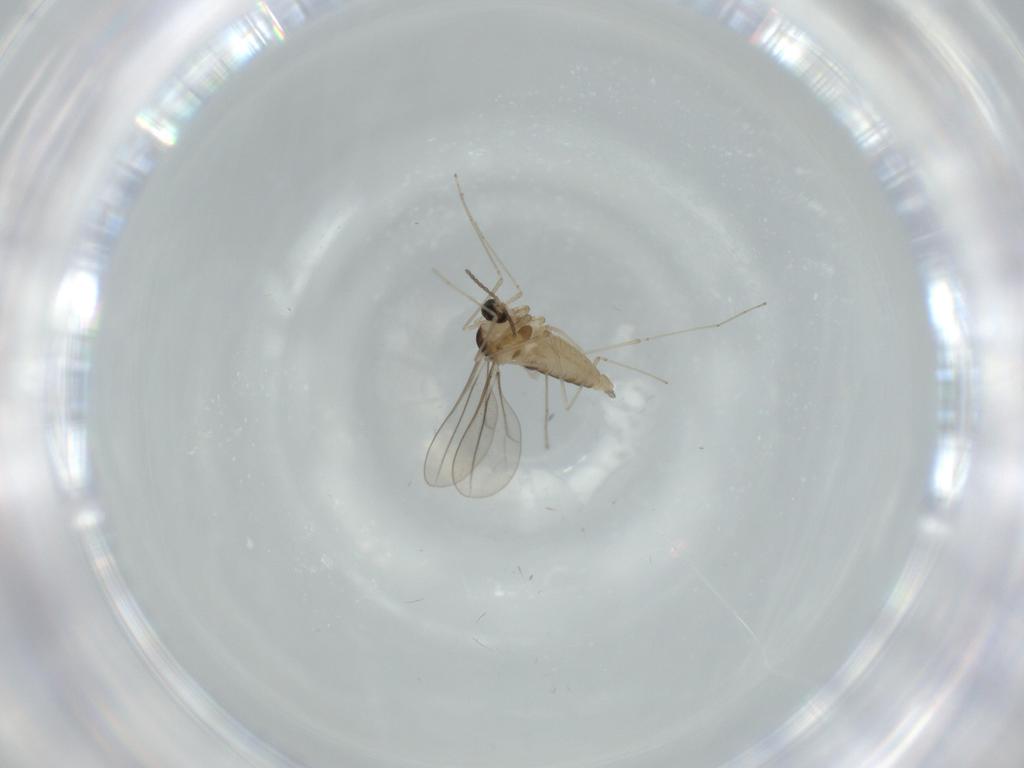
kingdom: Animalia
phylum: Arthropoda
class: Insecta
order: Diptera
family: Cecidomyiidae
